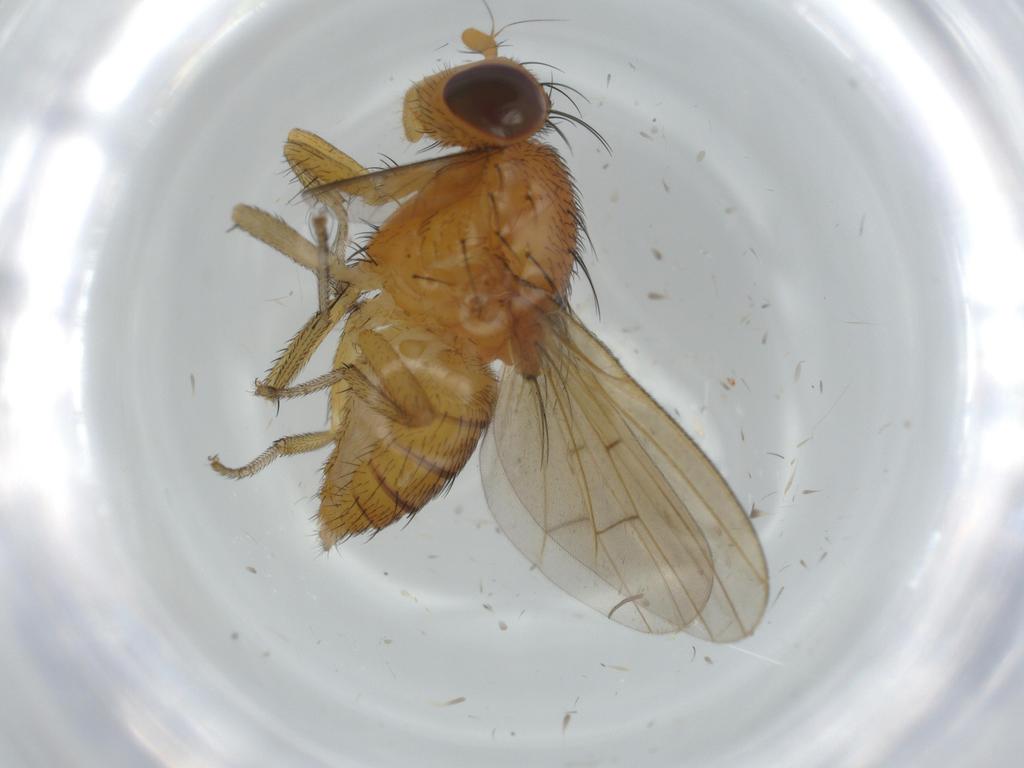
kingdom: Animalia
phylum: Arthropoda
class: Insecta
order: Diptera
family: Lauxaniidae
